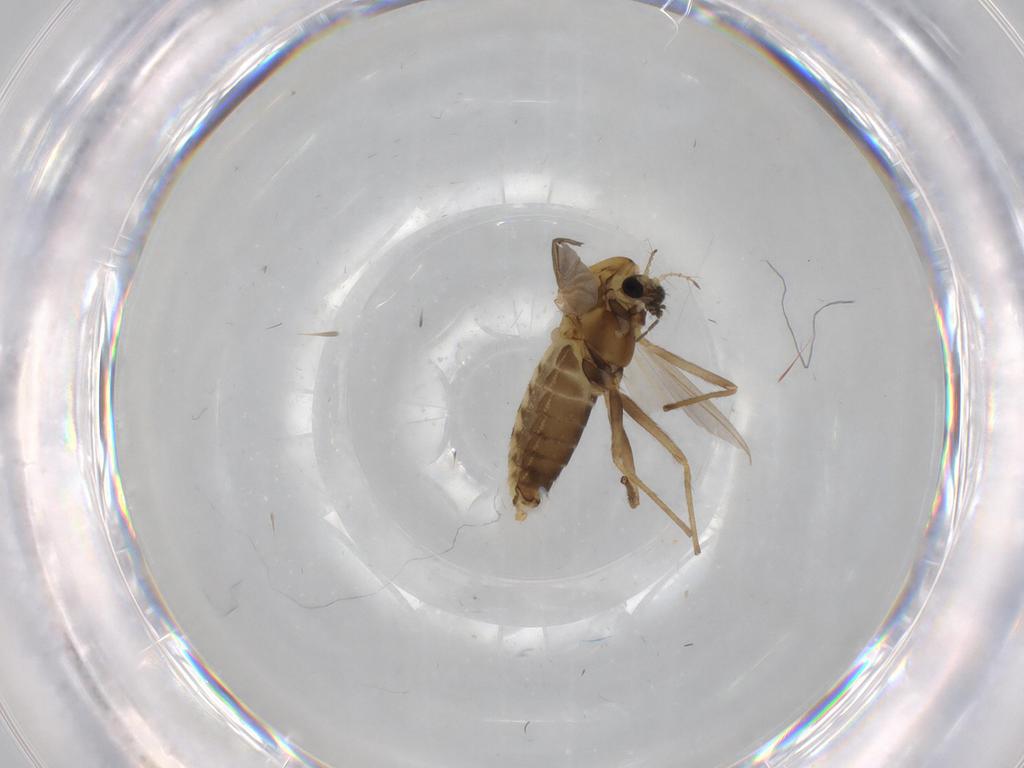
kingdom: Animalia
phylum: Arthropoda
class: Insecta
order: Diptera
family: Chironomidae
